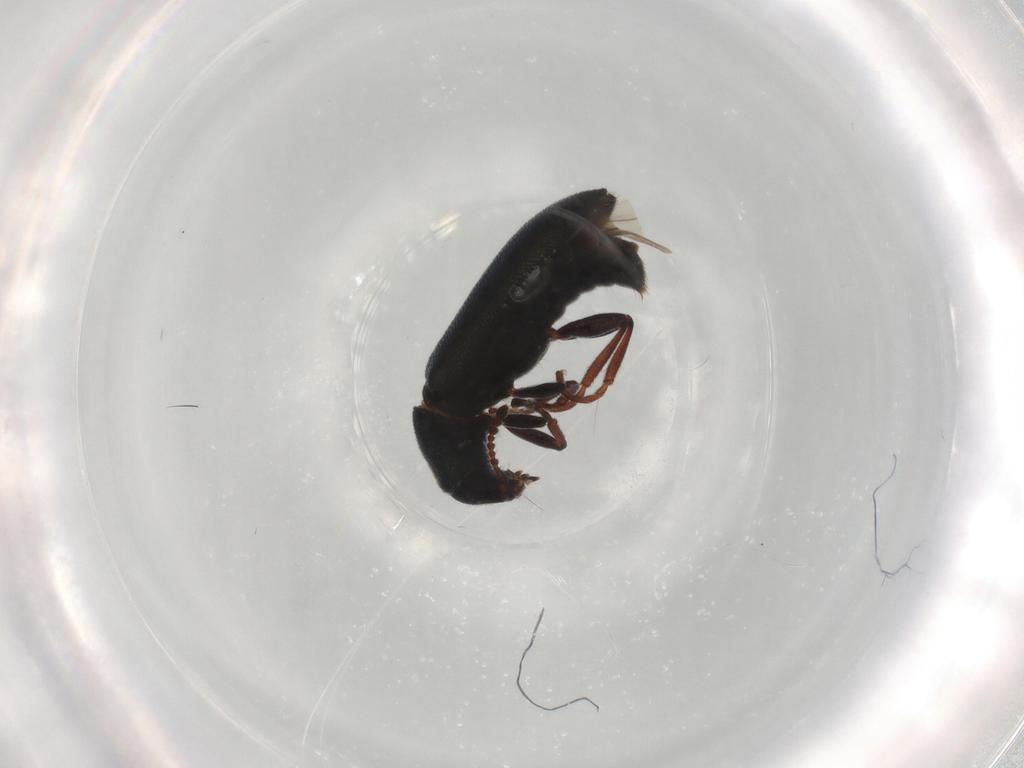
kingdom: Animalia
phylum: Arthropoda
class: Insecta
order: Coleoptera
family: Melyridae
